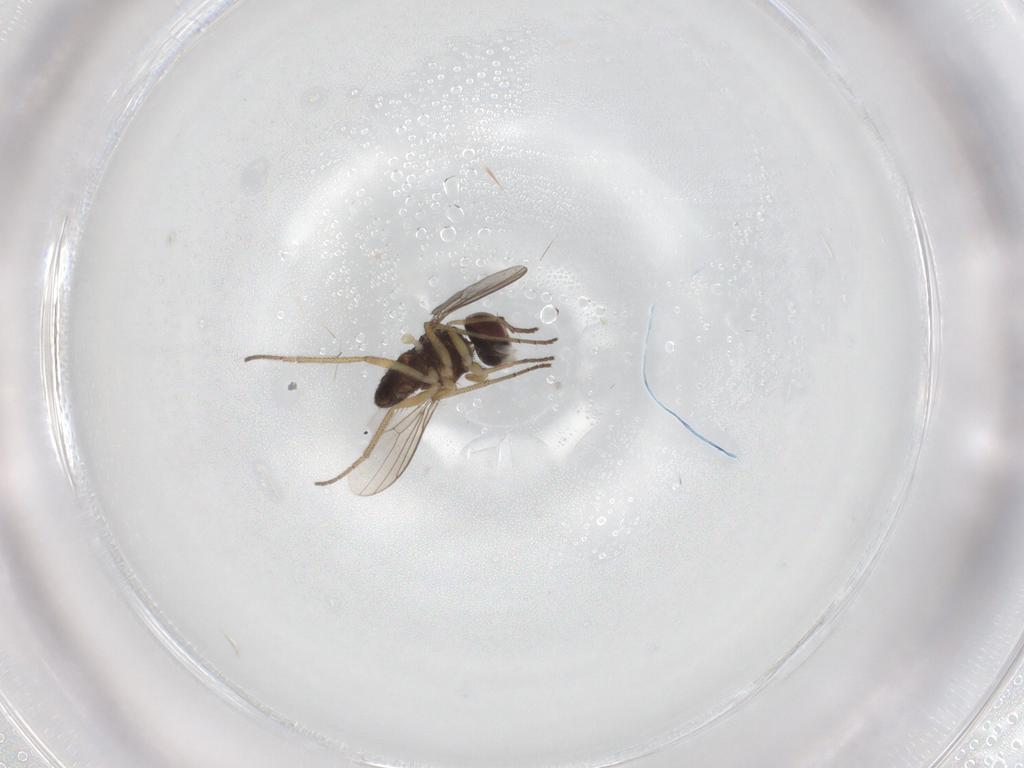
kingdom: Animalia
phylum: Arthropoda
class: Insecta
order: Diptera
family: Dolichopodidae
